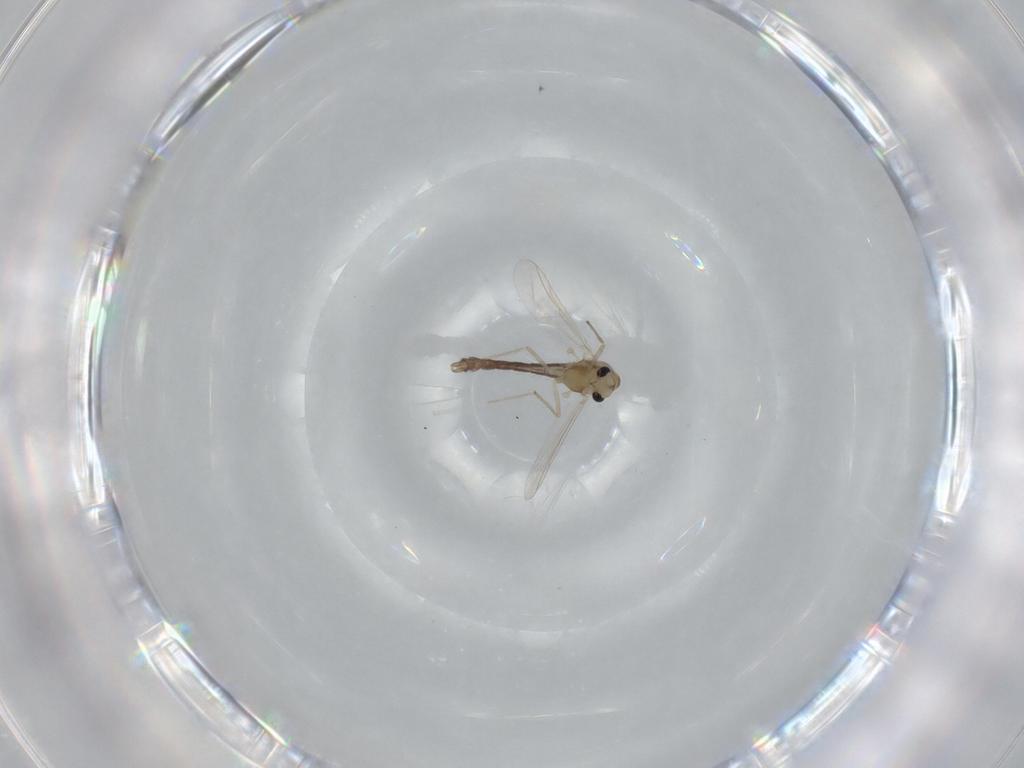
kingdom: Animalia
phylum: Arthropoda
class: Insecta
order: Diptera
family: Chironomidae
